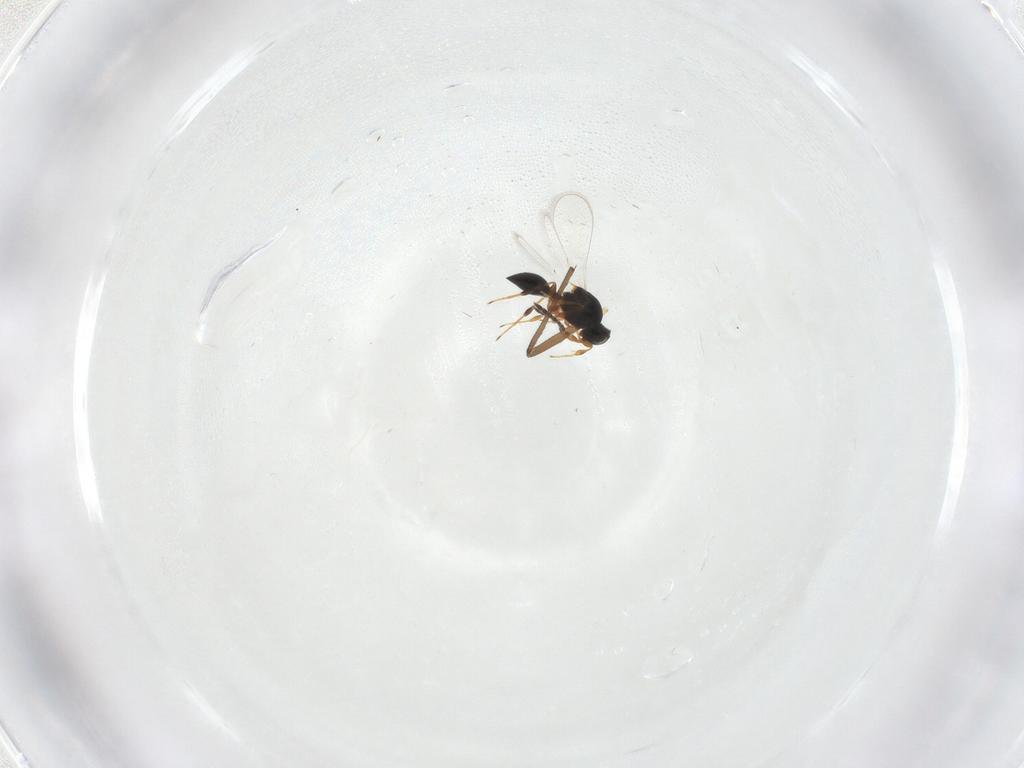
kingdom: Animalia
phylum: Arthropoda
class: Insecta
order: Hymenoptera
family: Platygastridae
